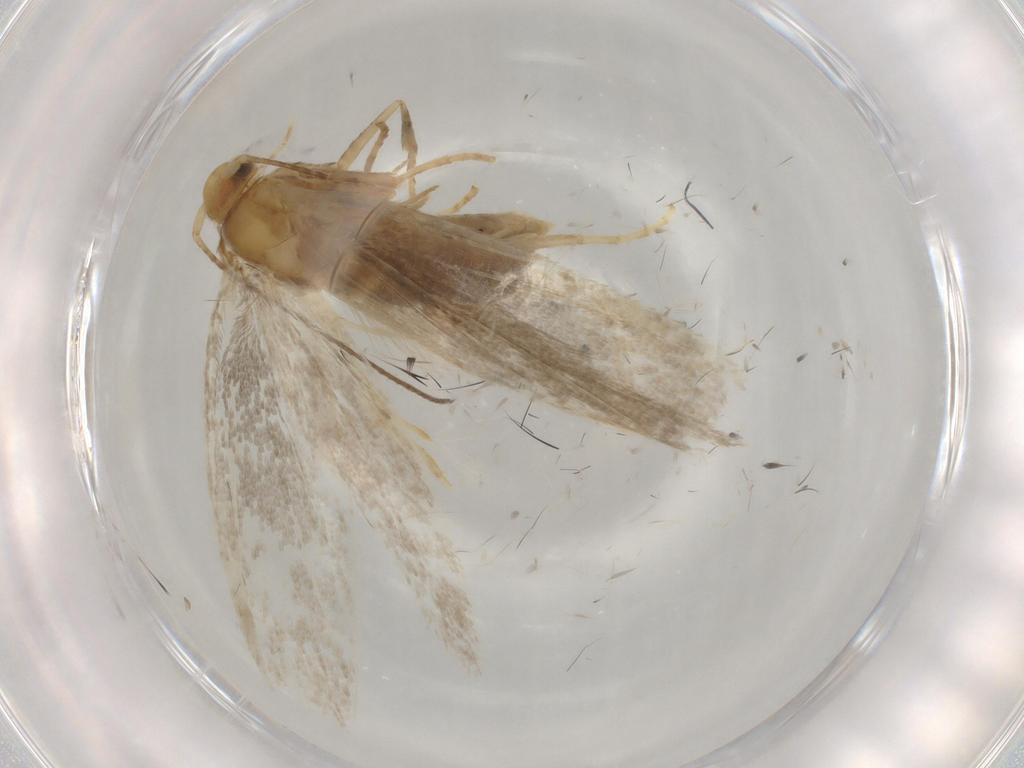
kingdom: Animalia
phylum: Arthropoda
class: Insecta
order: Lepidoptera
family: Argyresthiidae
